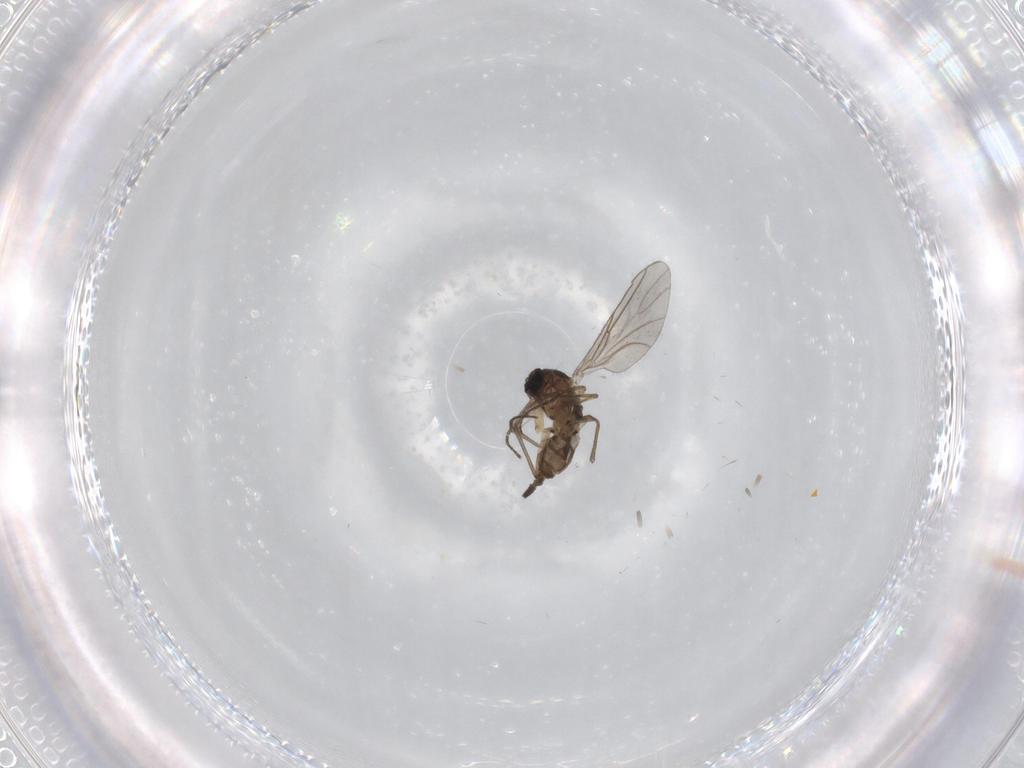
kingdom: Animalia
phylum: Arthropoda
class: Insecta
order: Diptera
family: Sciaridae
